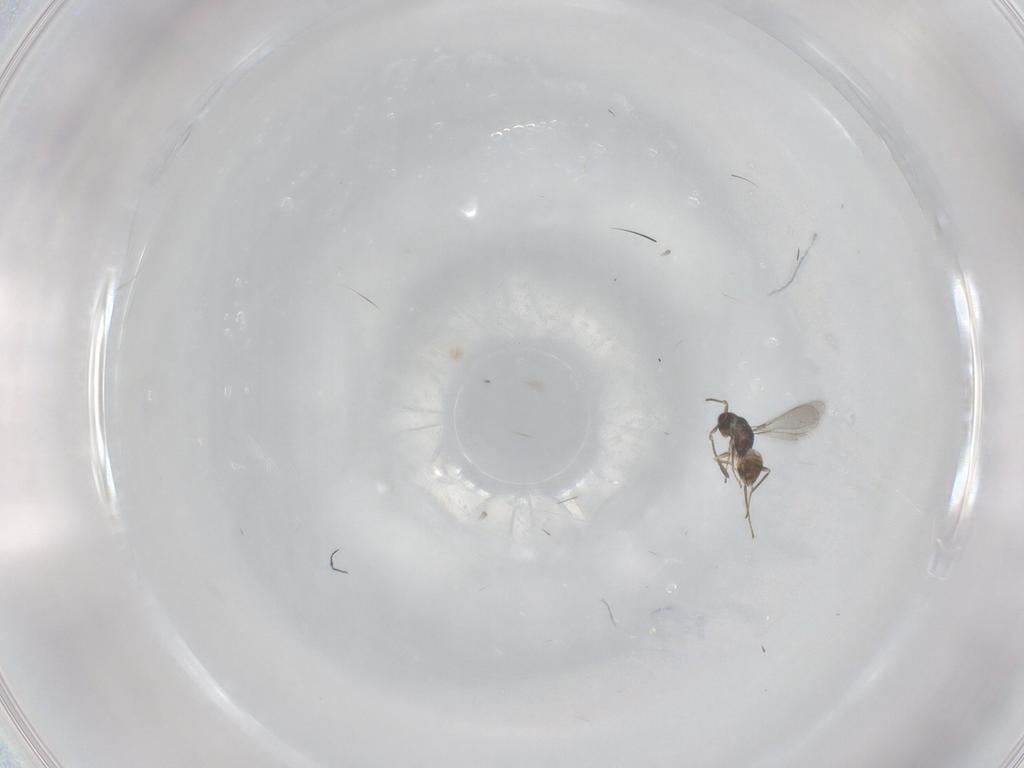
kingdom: Animalia
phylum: Arthropoda
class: Insecta
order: Hymenoptera
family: Mymaridae
